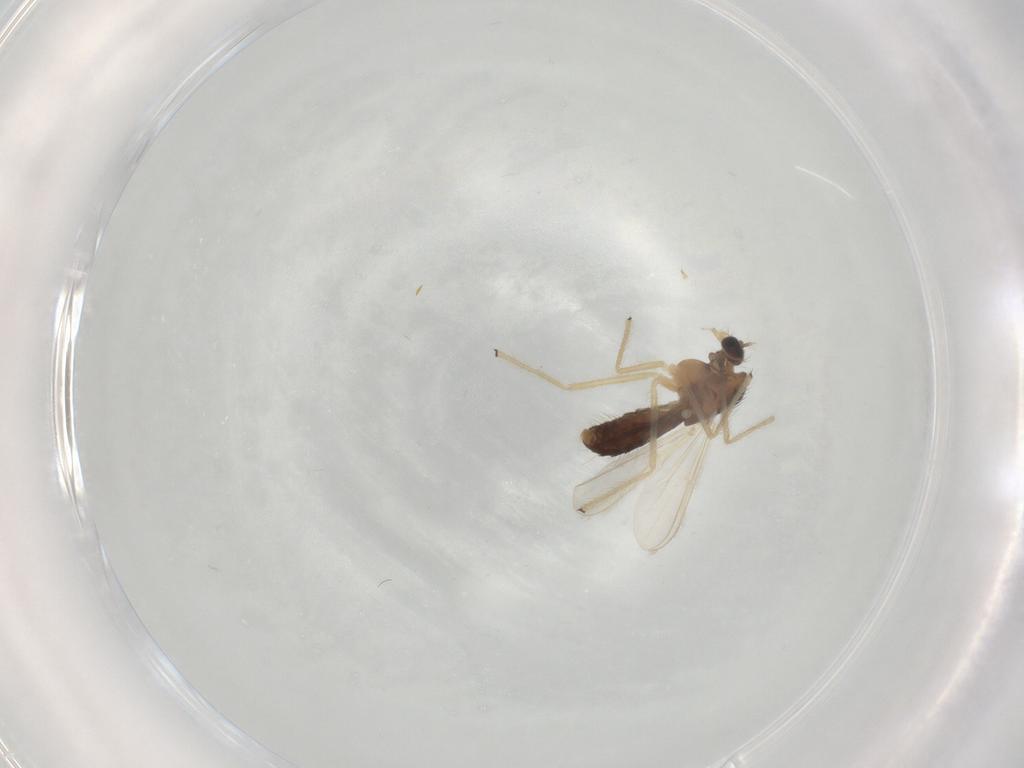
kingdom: Animalia
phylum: Arthropoda
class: Insecta
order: Diptera
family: Chironomidae
